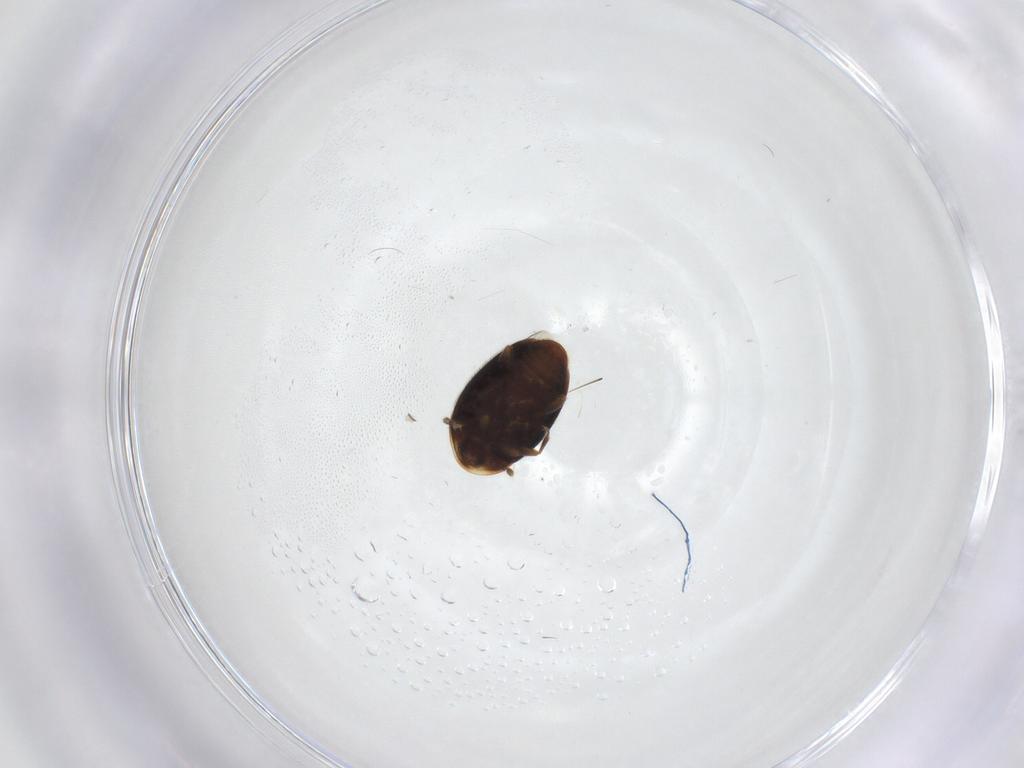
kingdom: Animalia
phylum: Arthropoda
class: Insecta
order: Coleoptera
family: Corylophidae
